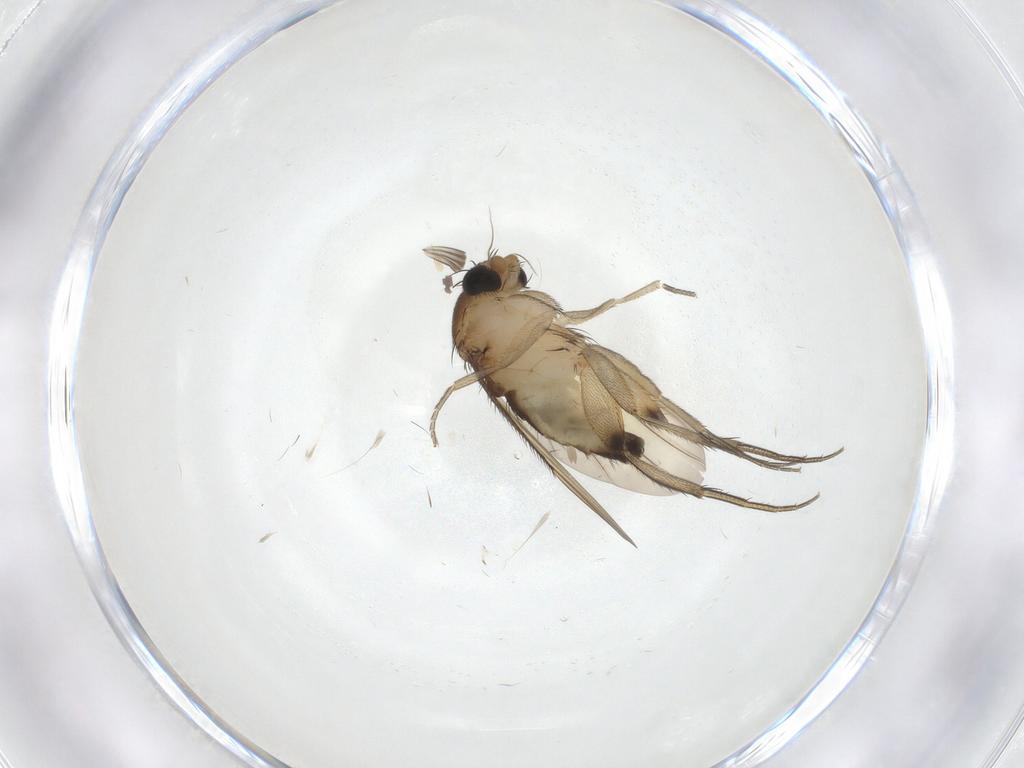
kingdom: Animalia
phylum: Arthropoda
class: Insecta
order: Diptera
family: Phoridae
